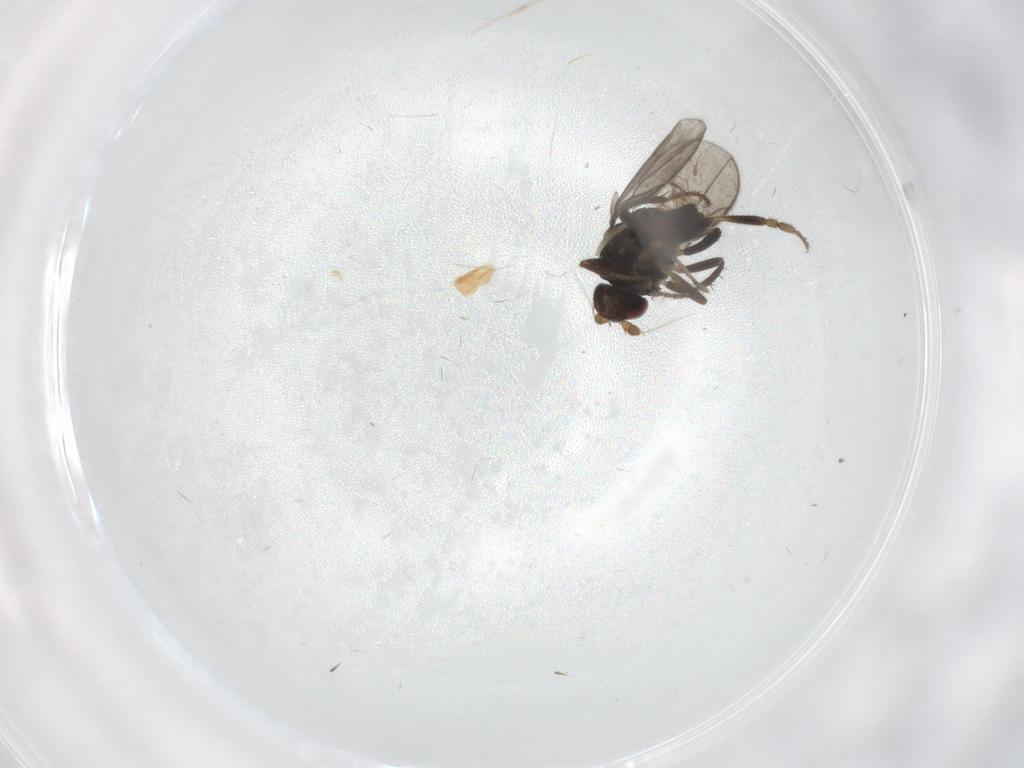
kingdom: Animalia
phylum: Arthropoda
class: Insecta
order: Diptera
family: Sphaeroceridae
